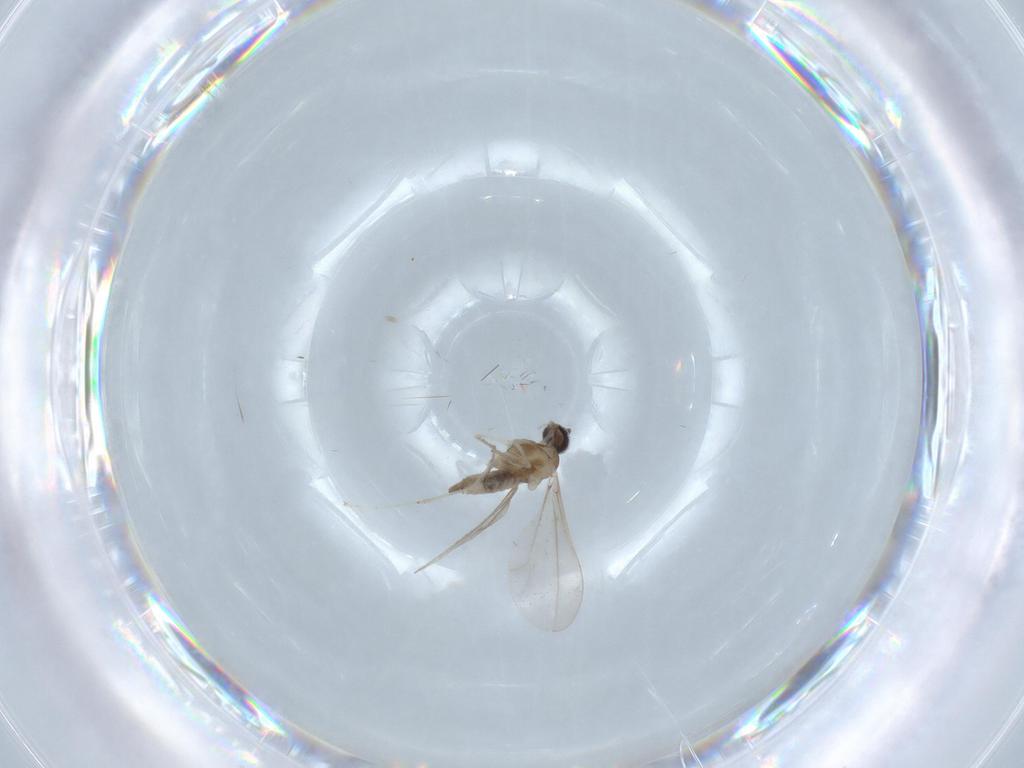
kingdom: Animalia
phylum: Arthropoda
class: Insecta
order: Diptera
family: Cecidomyiidae
